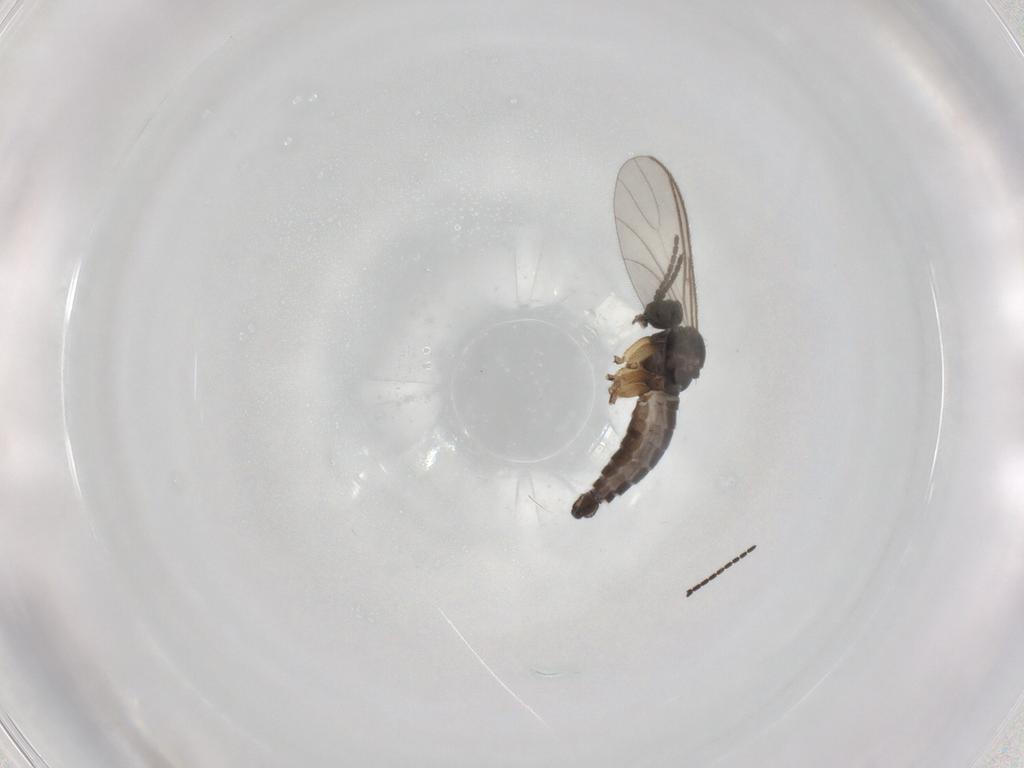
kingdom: Animalia
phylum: Arthropoda
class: Insecta
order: Diptera
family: Sciaridae
